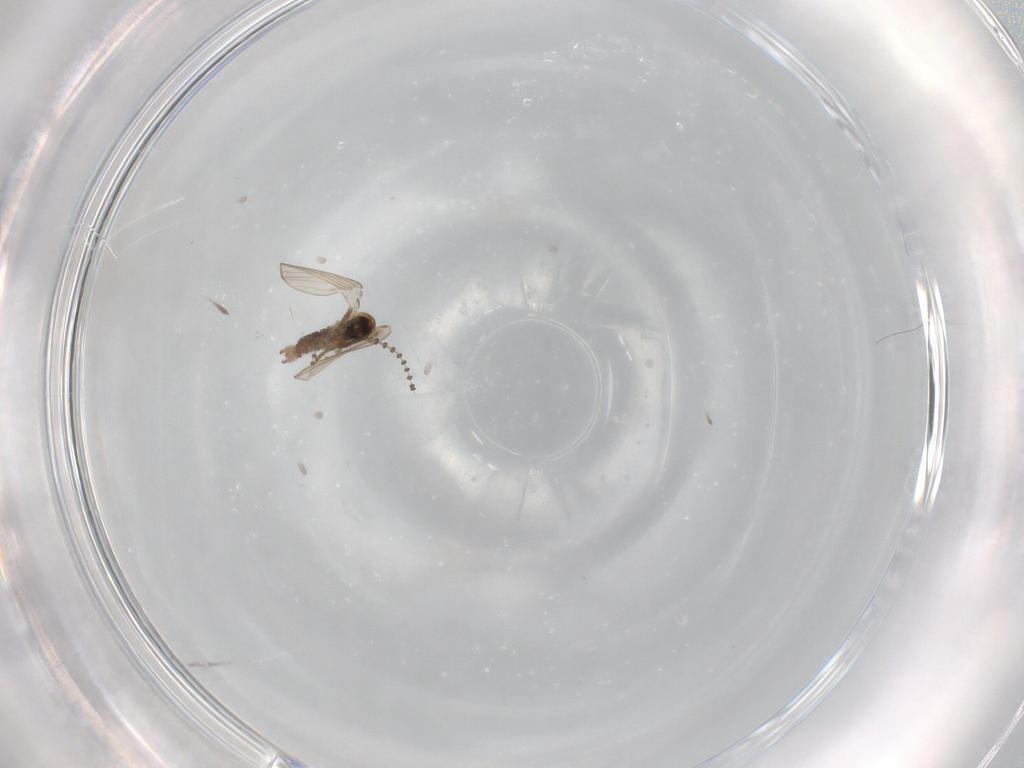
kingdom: Animalia
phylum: Arthropoda
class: Insecta
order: Diptera
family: Psychodidae
